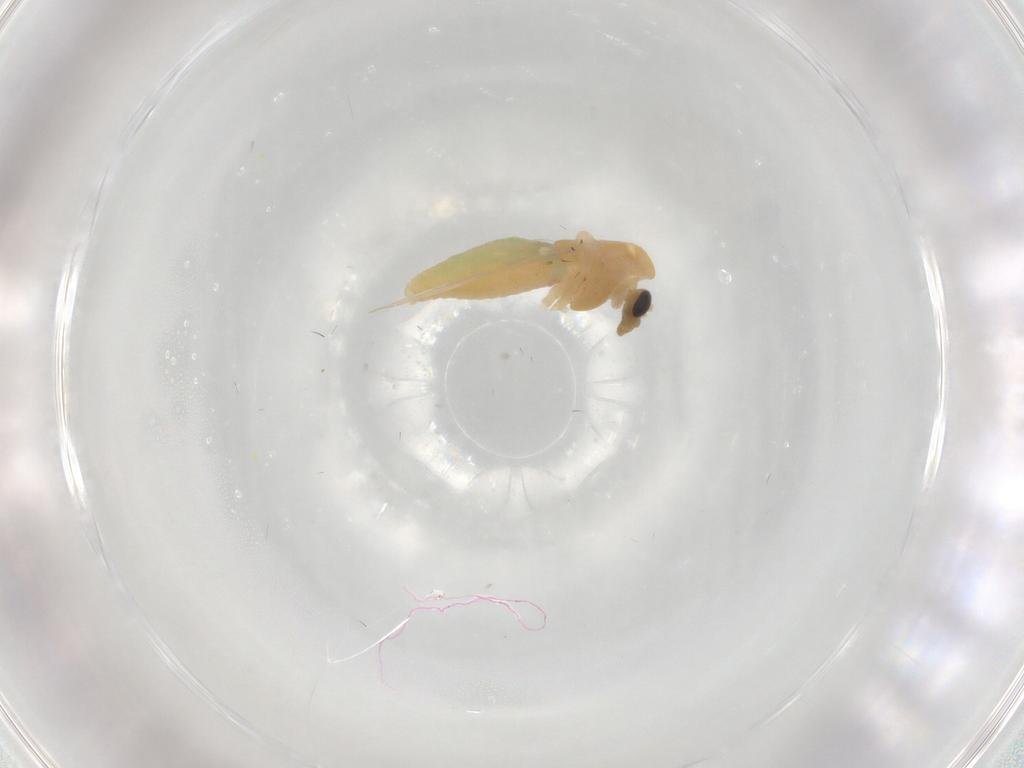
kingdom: Animalia
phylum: Arthropoda
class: Insecta
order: Diptera
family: Chironomidae
